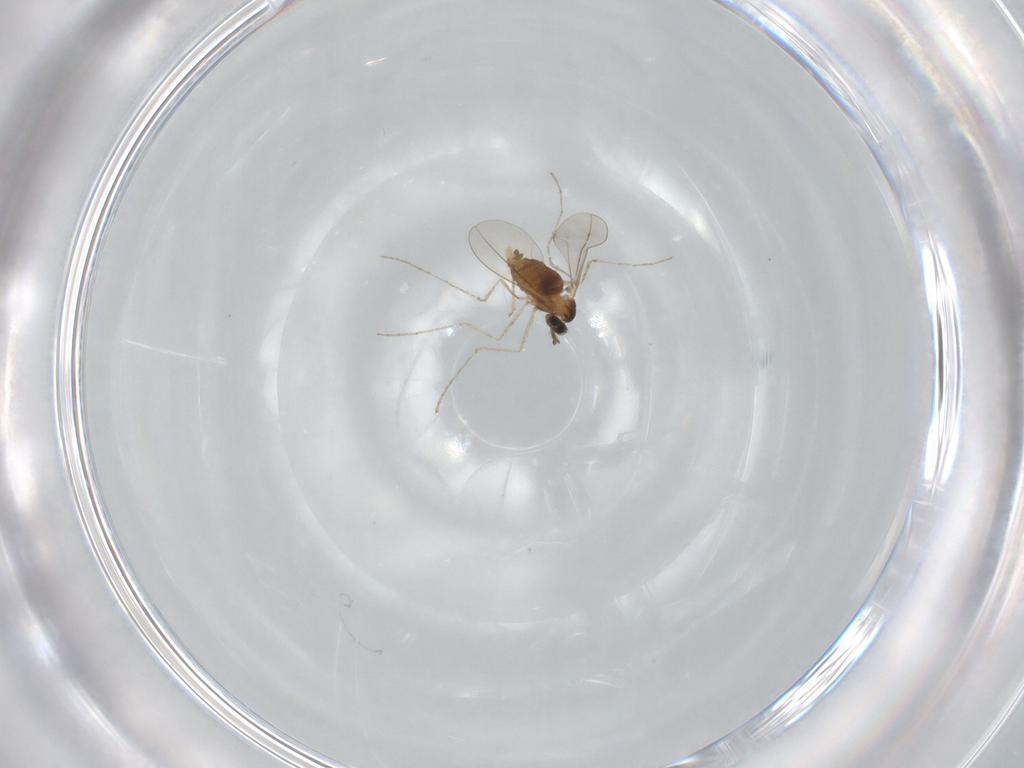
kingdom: Animalia
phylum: Arthropoda
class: Insecta
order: Diptera
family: Cecidomyiidae
